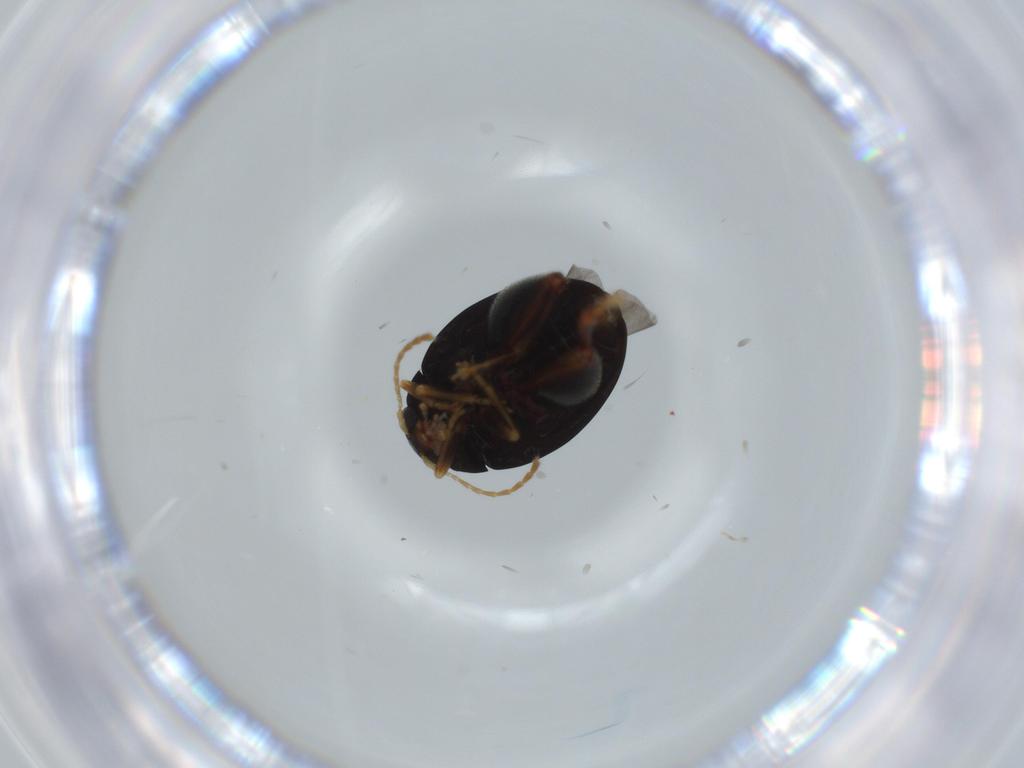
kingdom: Animalia
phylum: Arthropoda
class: Insecta
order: Coleoptera
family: Chrysomelidae
